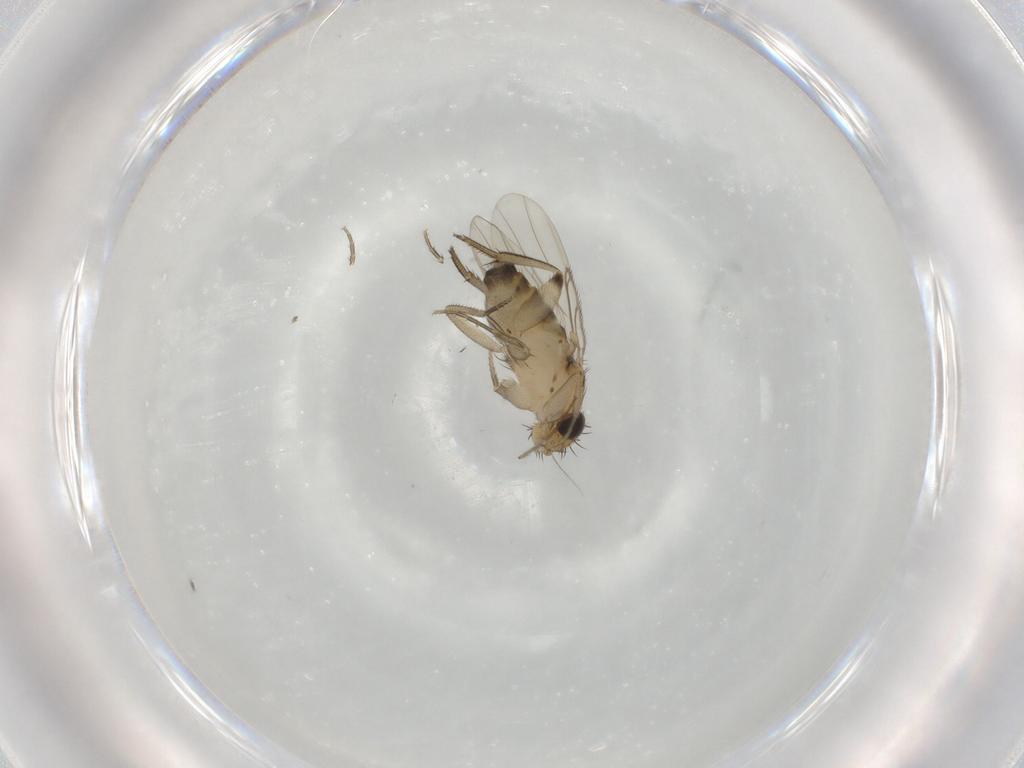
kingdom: Animalia
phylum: Arthropoda
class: Insecta
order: Diptera
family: Phoridae
